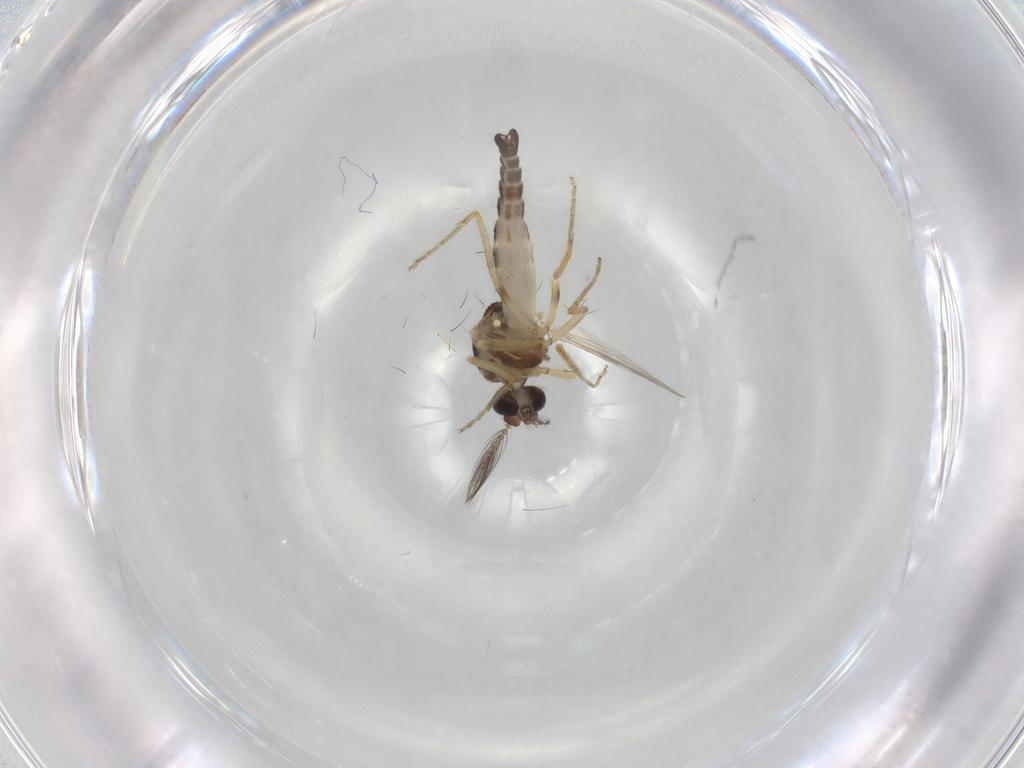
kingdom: Animalia
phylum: Arthropoda
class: Insecta
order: Diptera
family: Ceratopogonidae
